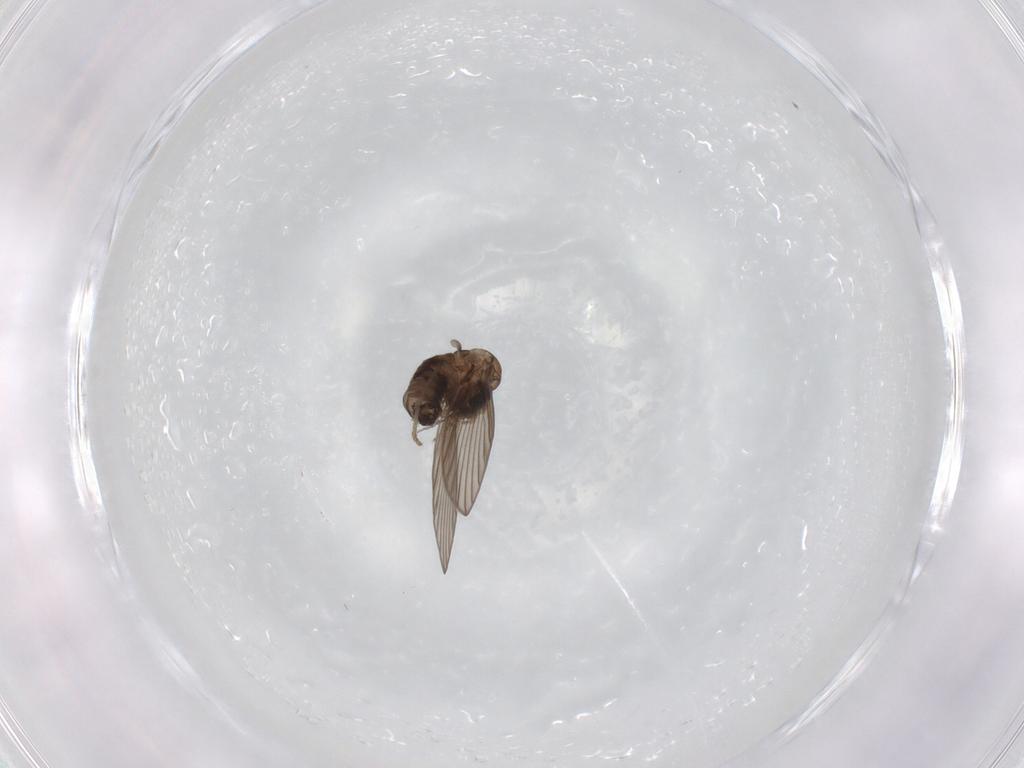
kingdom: Animalia
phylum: Arthropoda
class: Insecta
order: Diptera
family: Psychodidae
